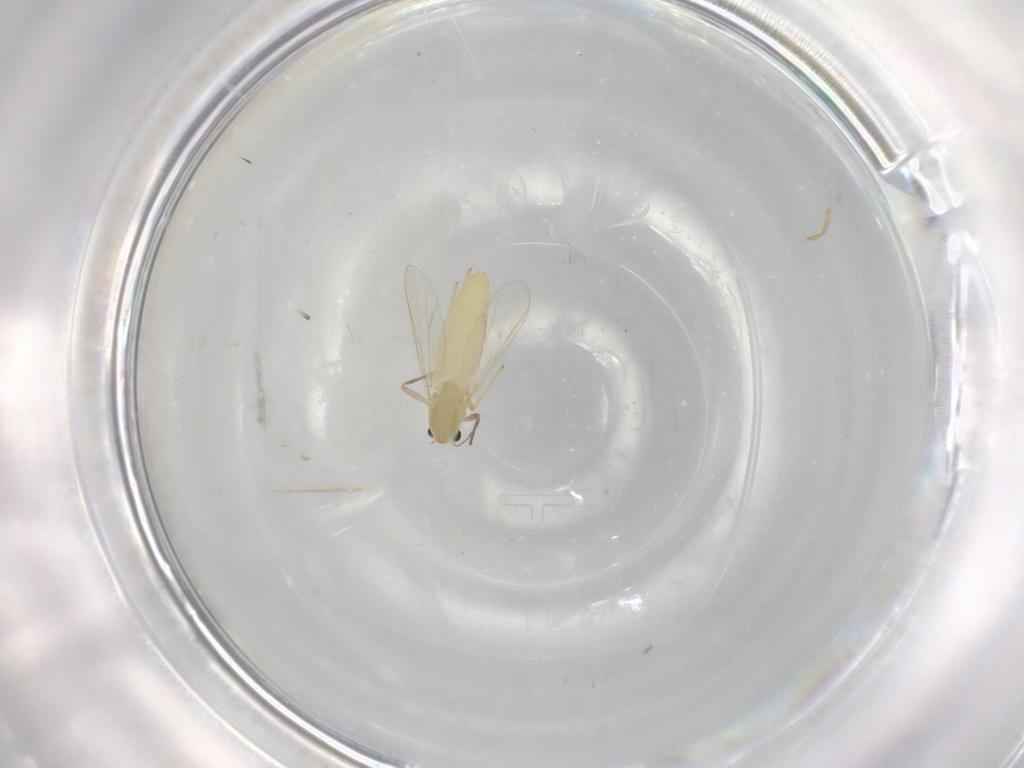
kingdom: Animalia
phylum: Arthropoda
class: Insecta
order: Diptera
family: Chironomidae
